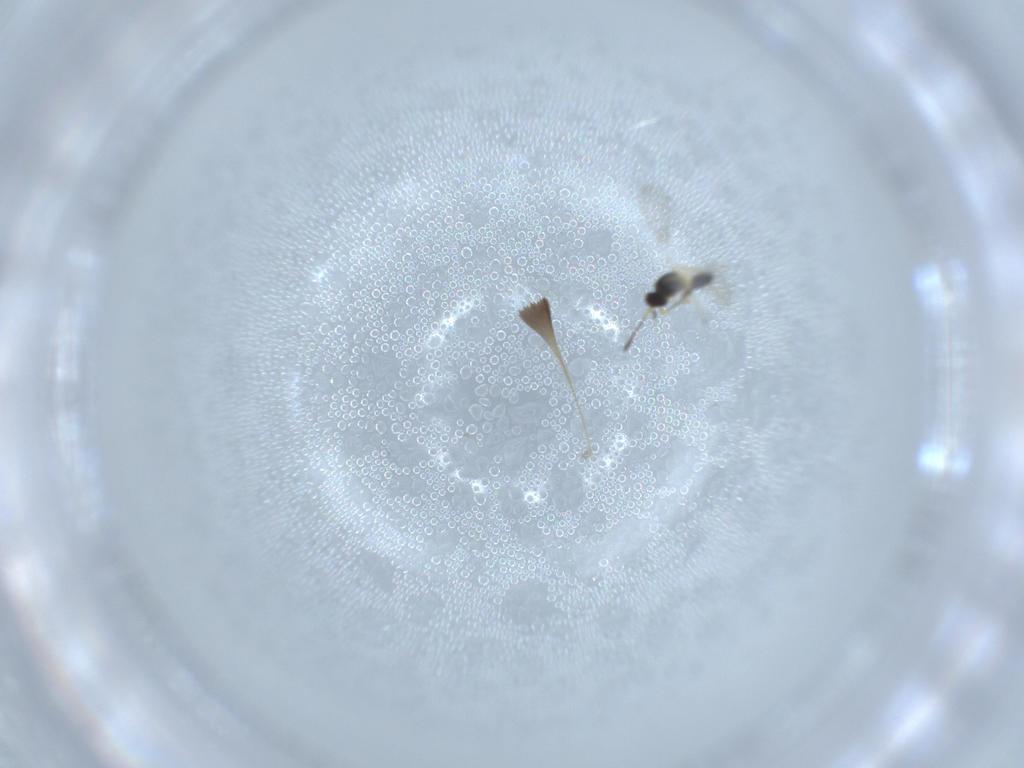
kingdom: Animalia
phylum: Arthropoda
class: Insecta
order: Hymenoptera
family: Mymaridae
